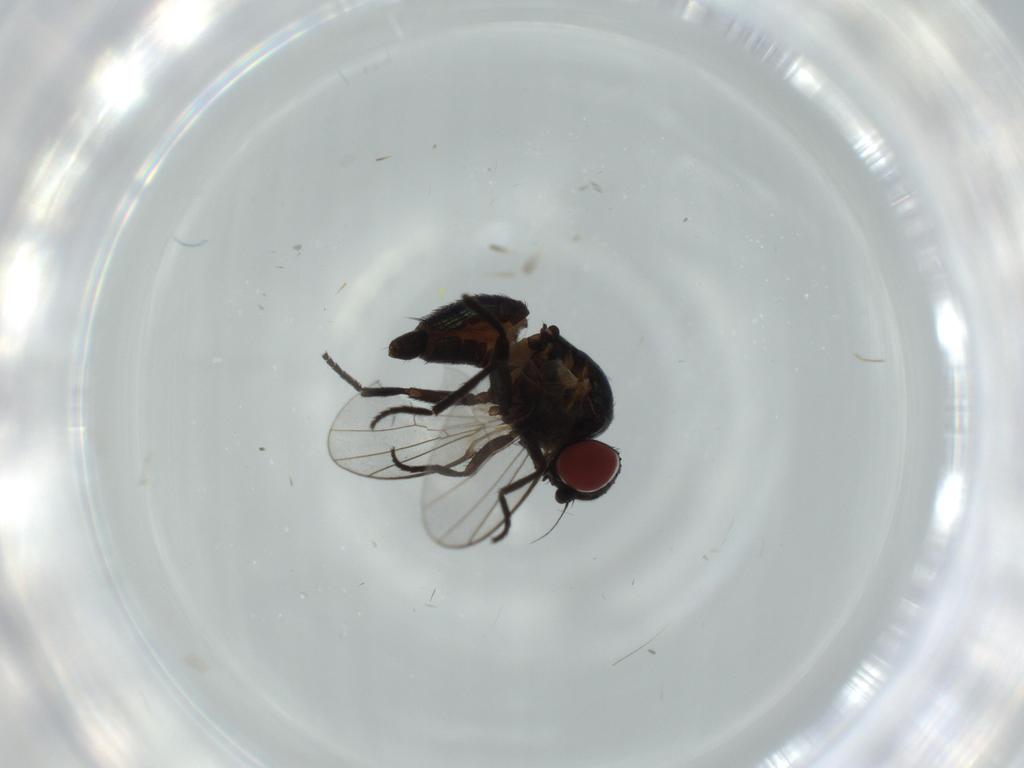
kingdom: Animalia
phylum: Arthropoda
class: Insecta
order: Diptera
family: Agromyzidae
